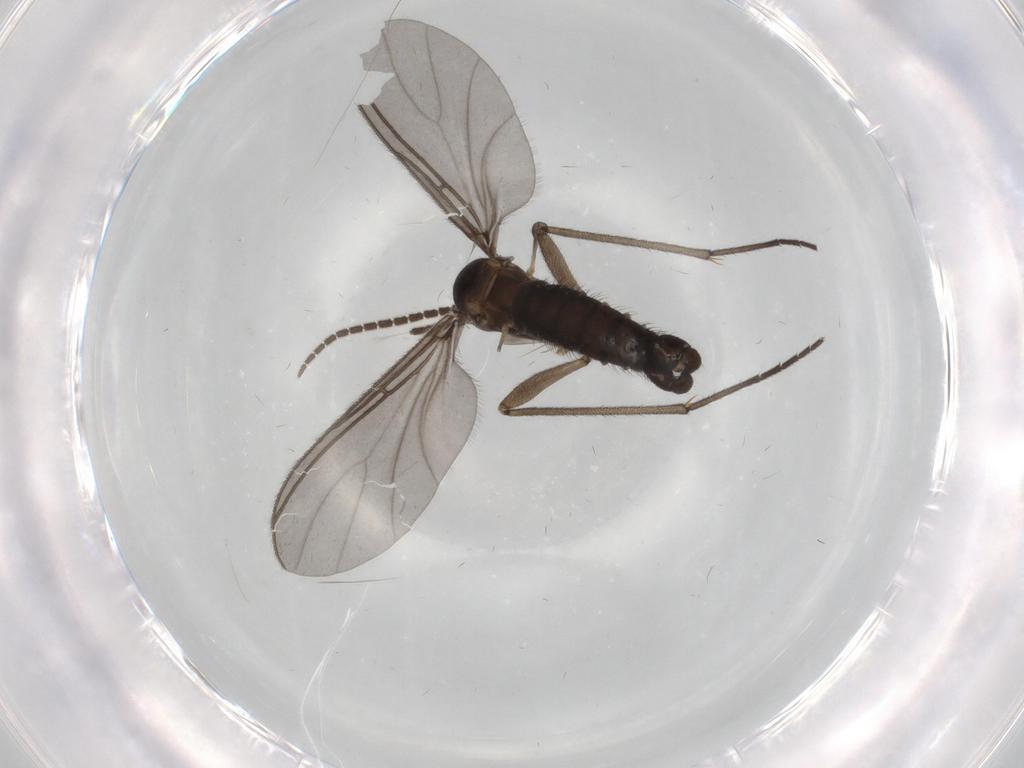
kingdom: Animalia
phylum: Arthropoda
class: Insecta
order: Diptera
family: Sciaridae
